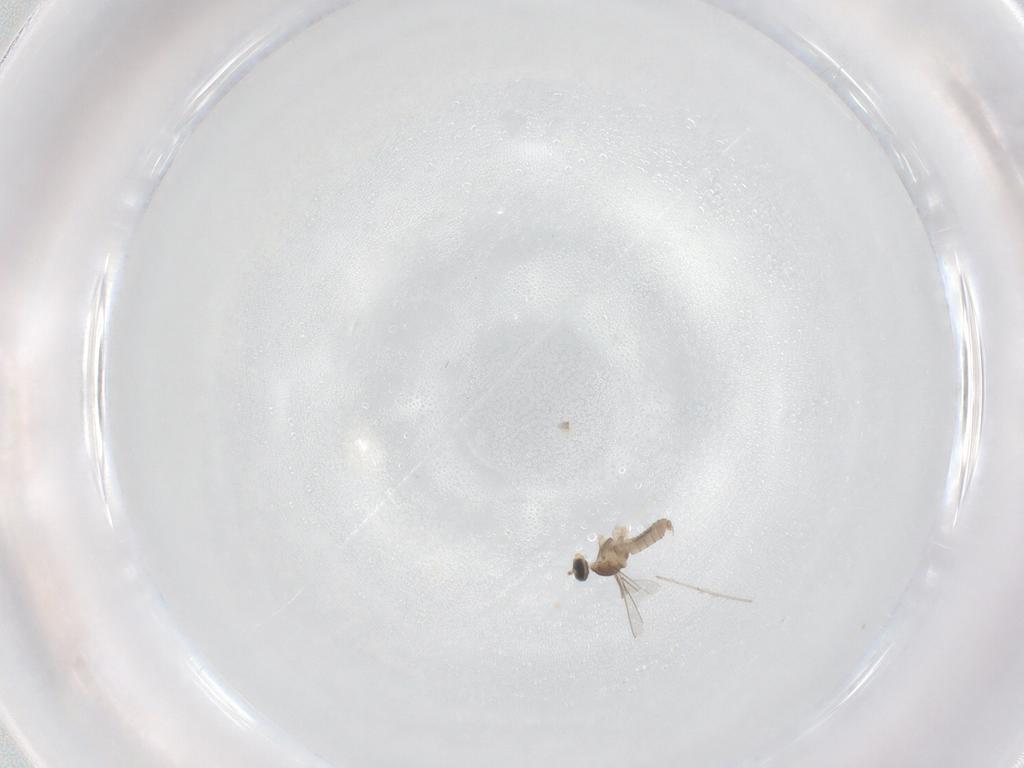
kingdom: Animalia
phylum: Arthropoda
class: Insecta
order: Diptera
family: Cecidomyiidae
